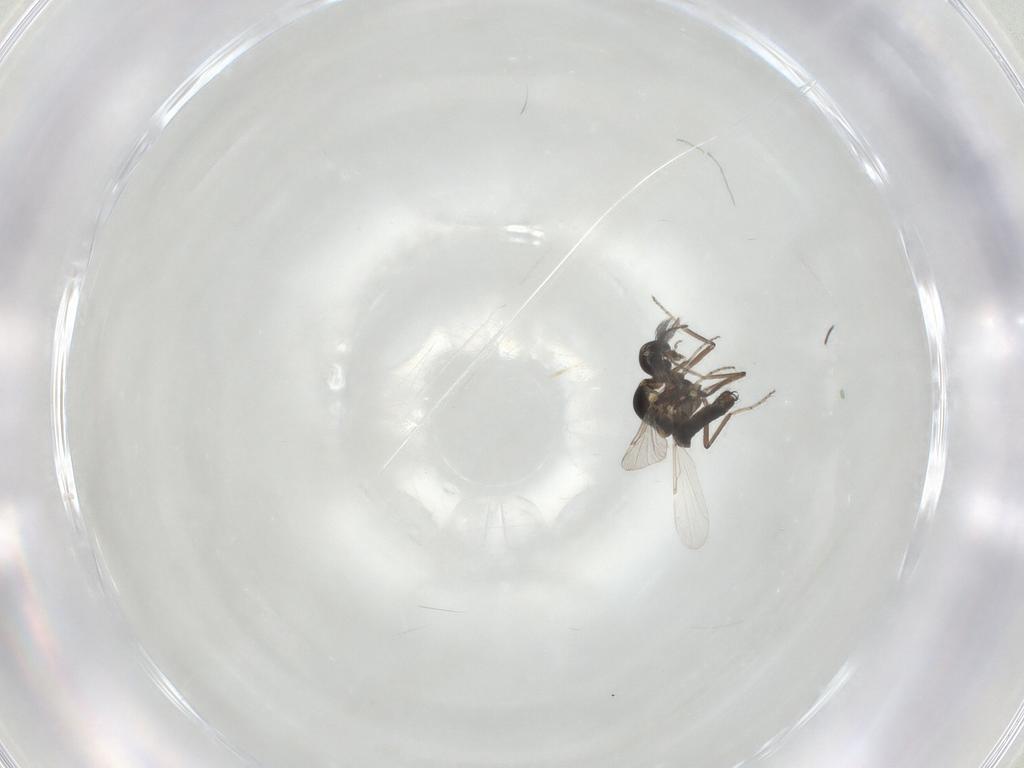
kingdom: Animalia
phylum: Arthropoda
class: Insecta
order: Diptera
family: Ceratopogonidae
